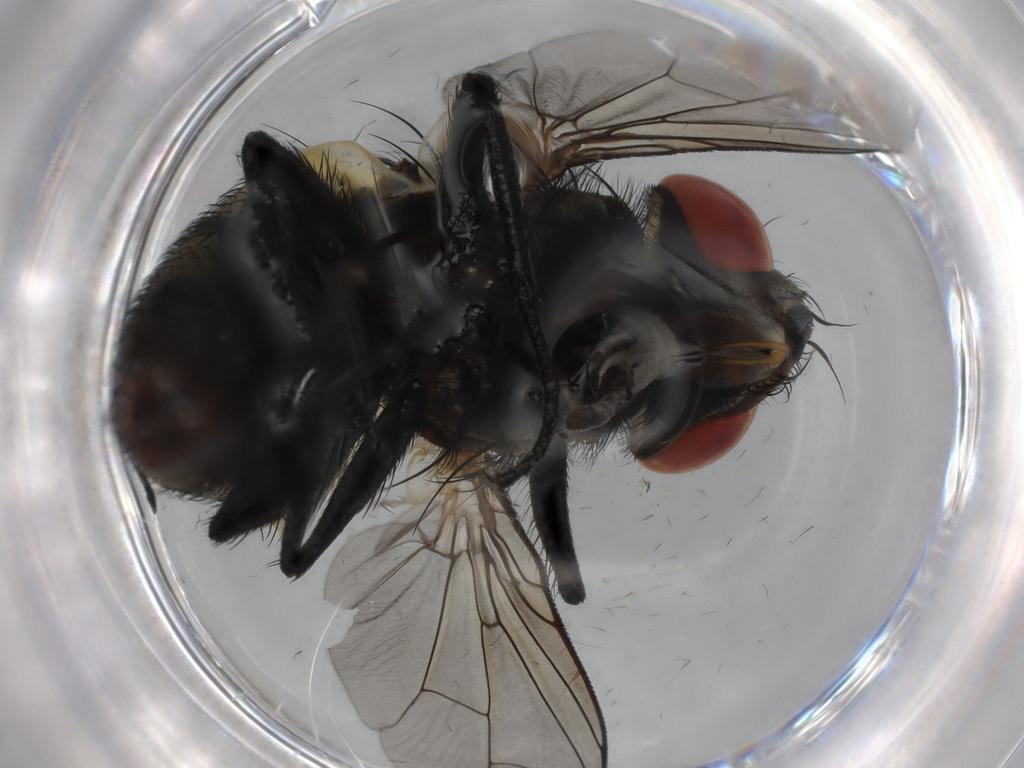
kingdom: Animalia
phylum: Arthropoda
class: Insecta
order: Diptera
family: Sarcophagidae
